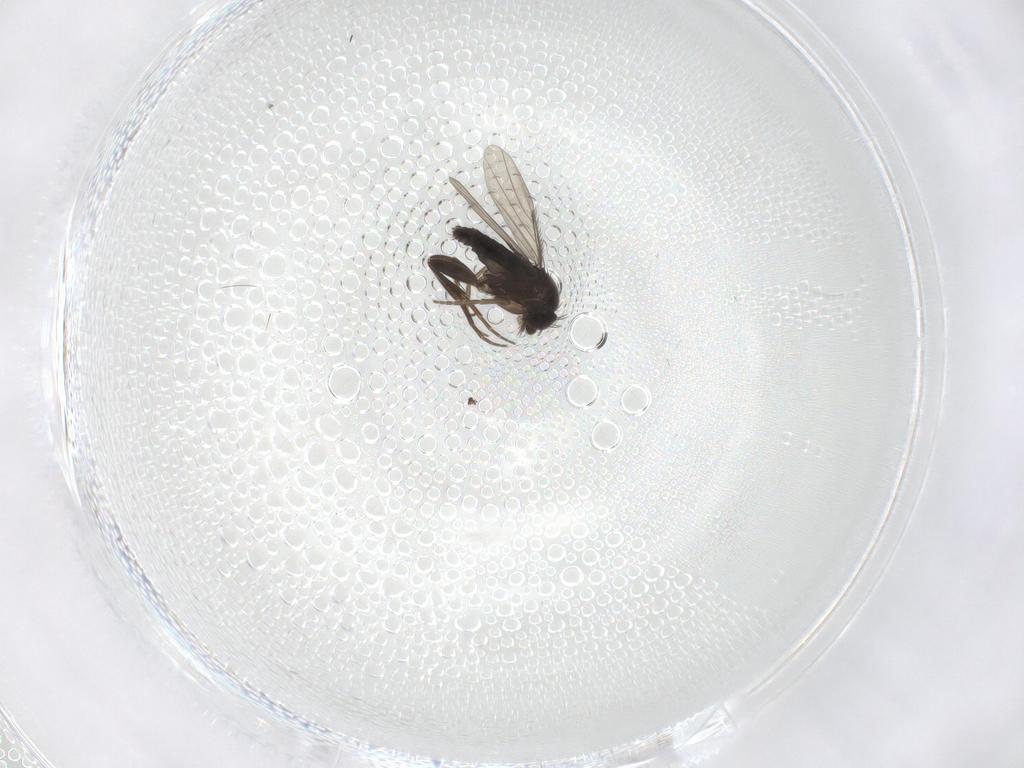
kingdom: Animalia
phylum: Arthropoda
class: Insecta
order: Diptera
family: Phoridae
